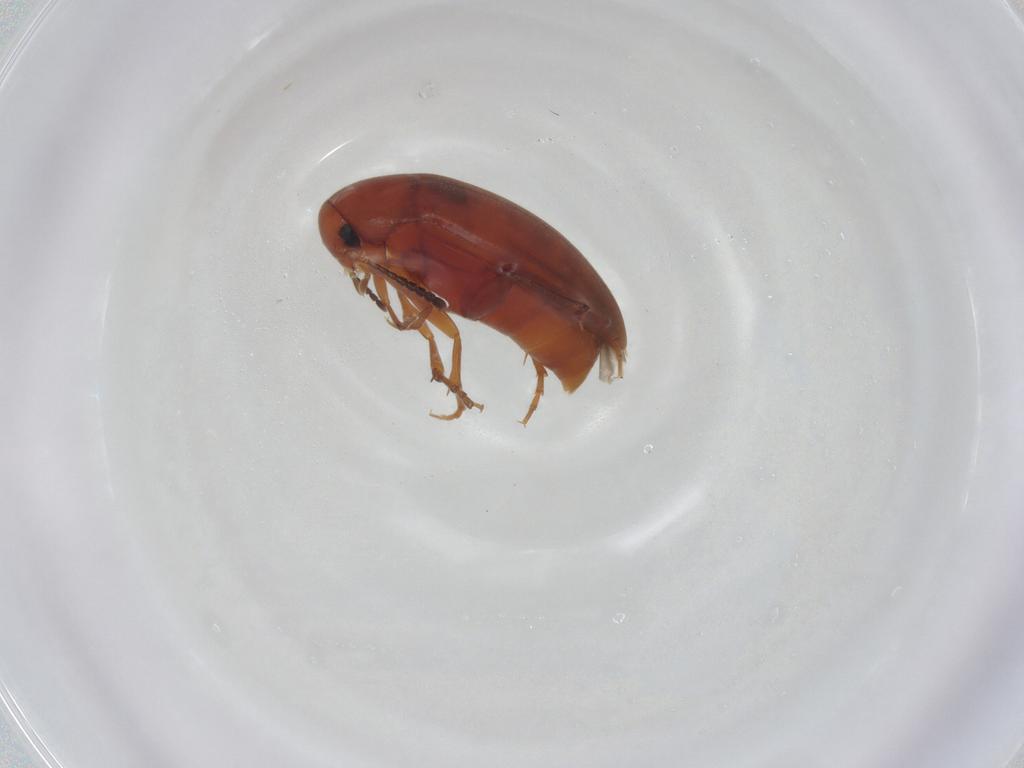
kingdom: Animalia
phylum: Arthropoda
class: Insecta
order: Coleoptera
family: Scraptiidae
